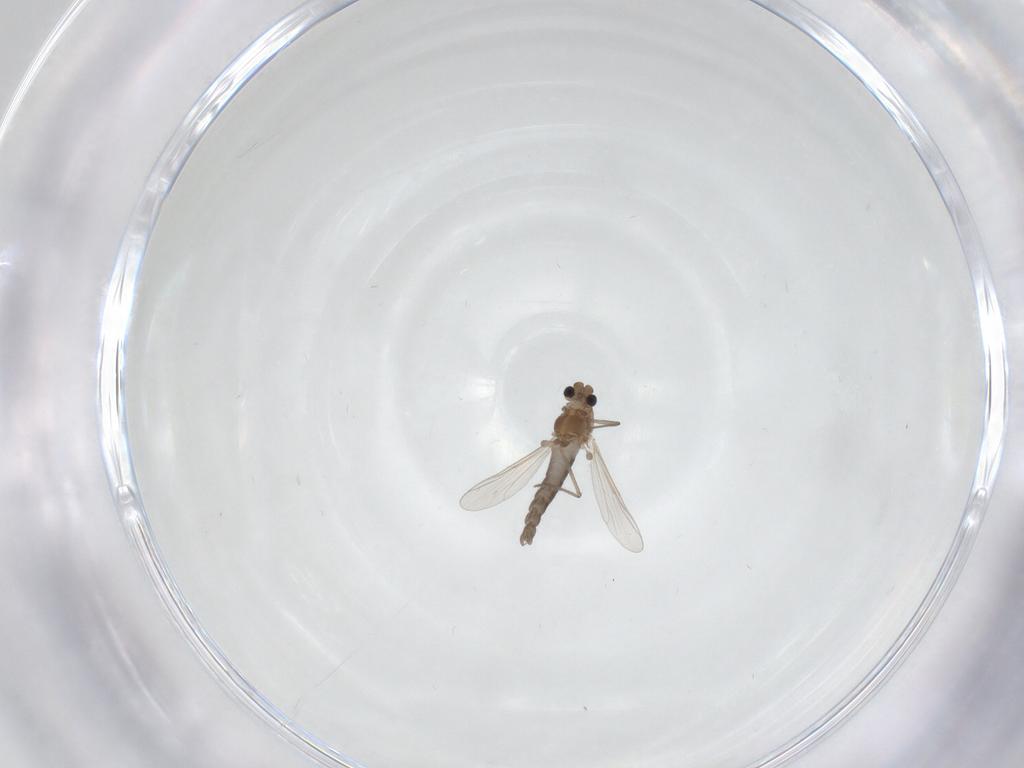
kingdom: Animalia
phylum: Arthropoda
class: Insecta
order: Diptera
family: Chironomidae
